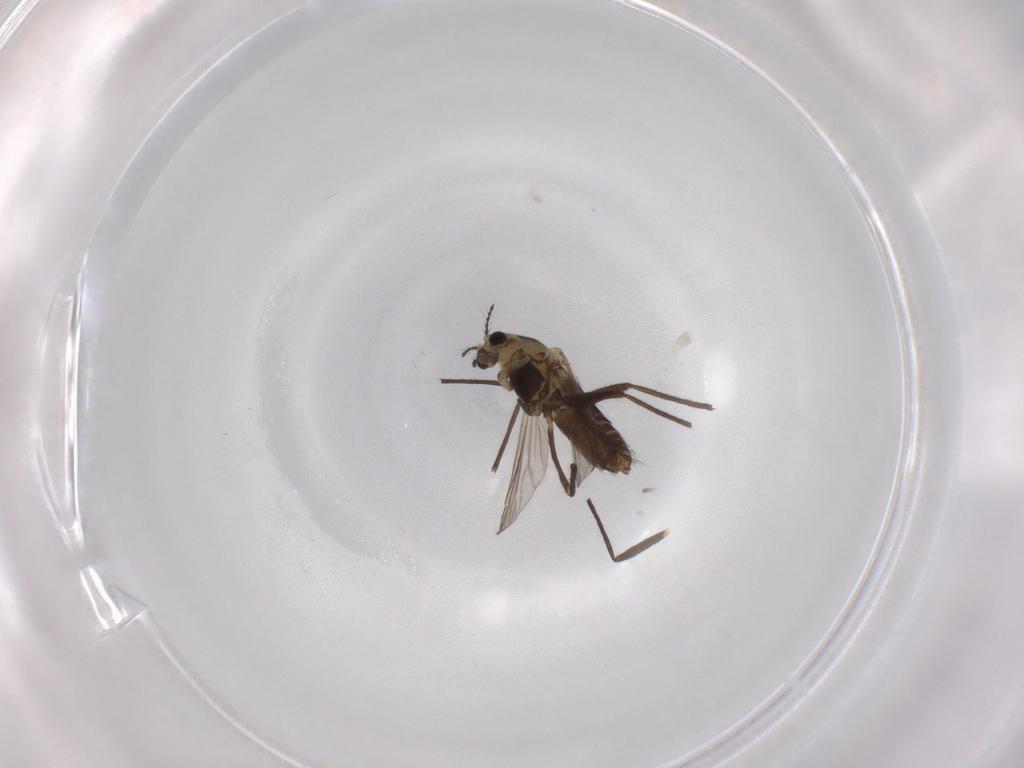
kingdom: Animalia
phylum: Arthropoda
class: Insecta
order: Diptera
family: Chironomidae
